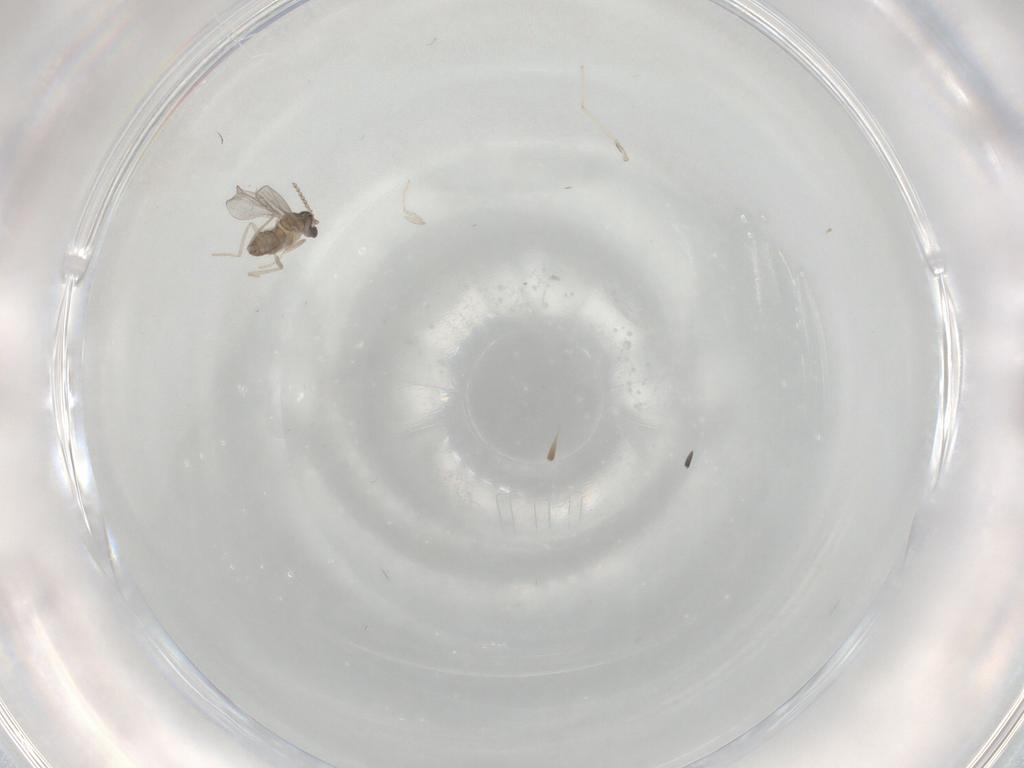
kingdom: Animalia
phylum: Arthropoda
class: Insecta
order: Diptera
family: Cecidomyiidae
